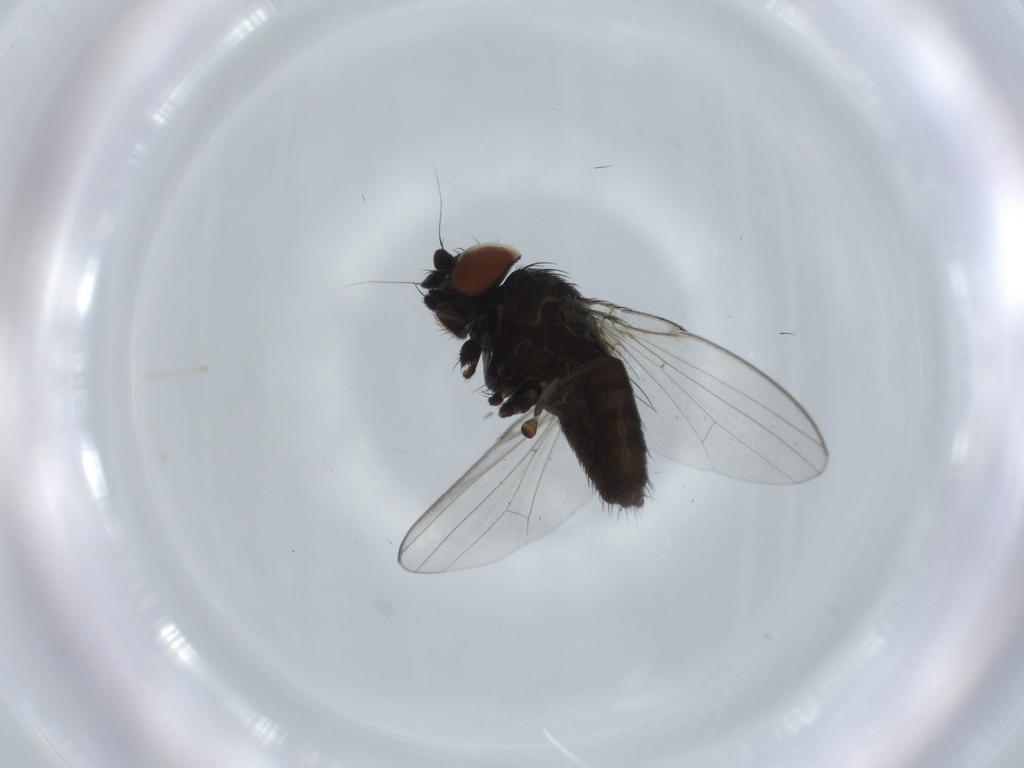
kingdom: Animalia
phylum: Arthropoda
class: Insecta
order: Diptera
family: Milichiidae
